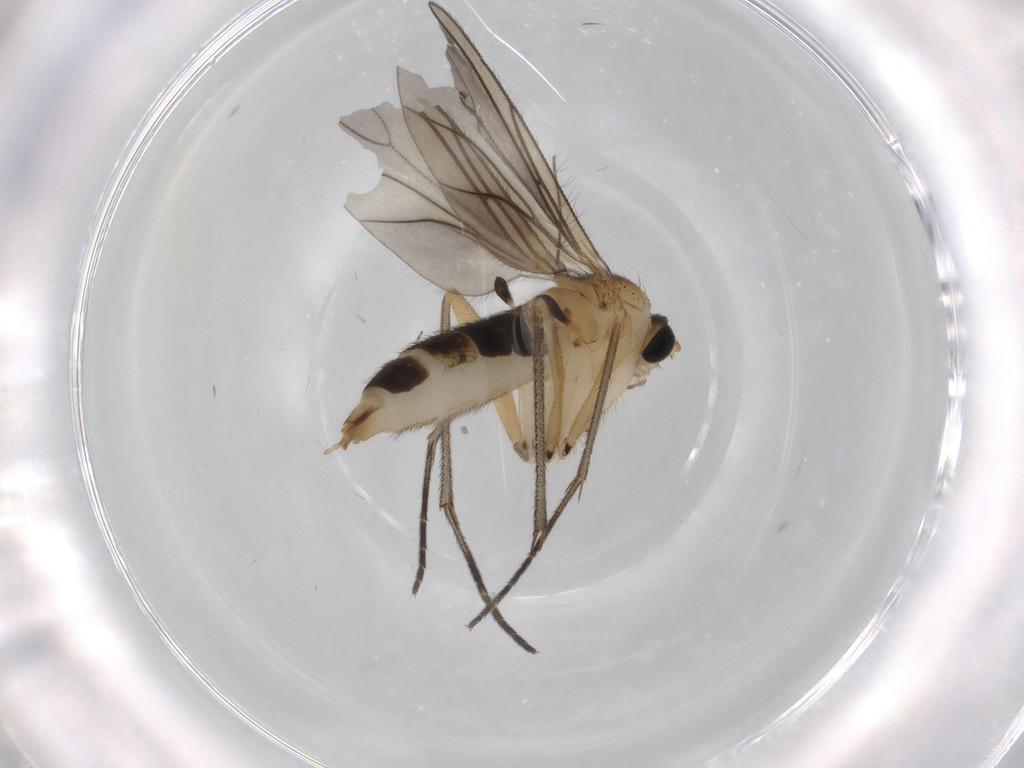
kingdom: Animalia
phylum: Arthropoda
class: Insecta
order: Diptera
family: Sciaridae
